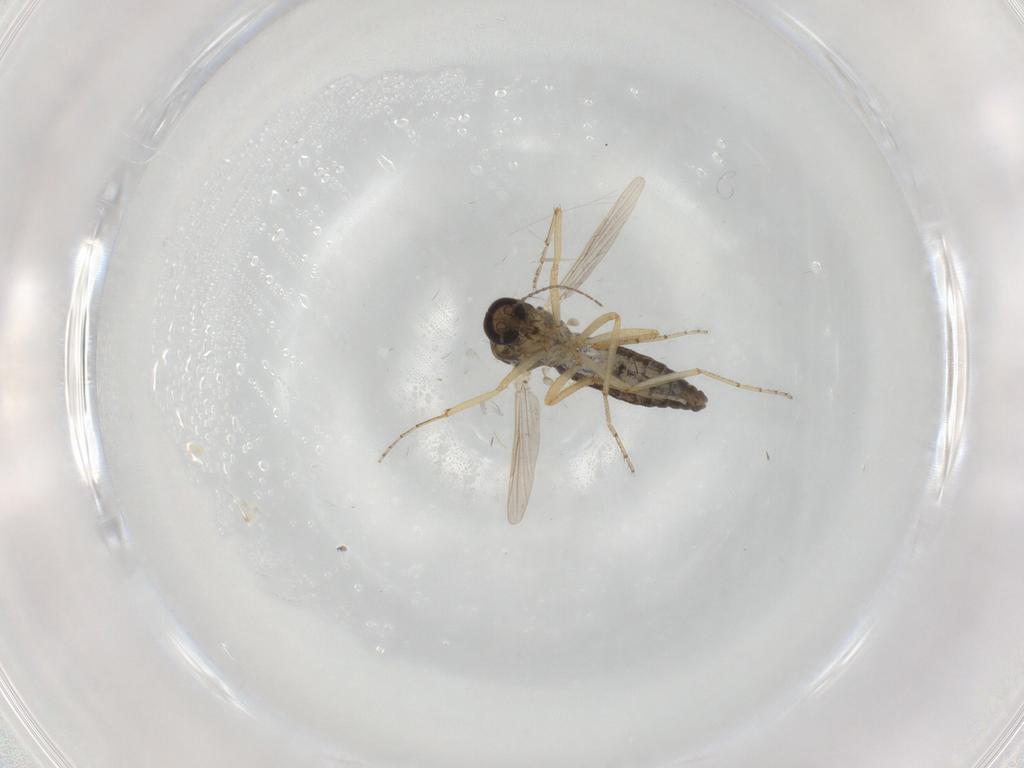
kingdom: Animalia
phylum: Arthropoda
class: Insecta
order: Diptera
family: Ceratopogonidae
